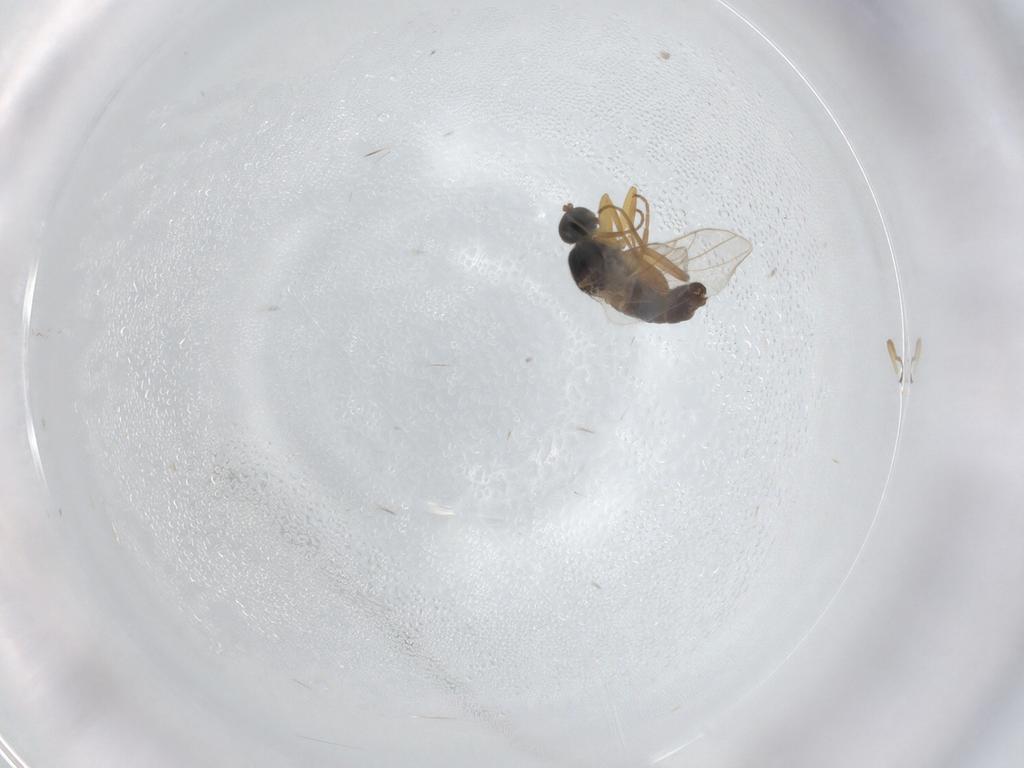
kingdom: Animalia
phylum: Arthropoda
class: Insecta
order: Diptera
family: Hybotidae
